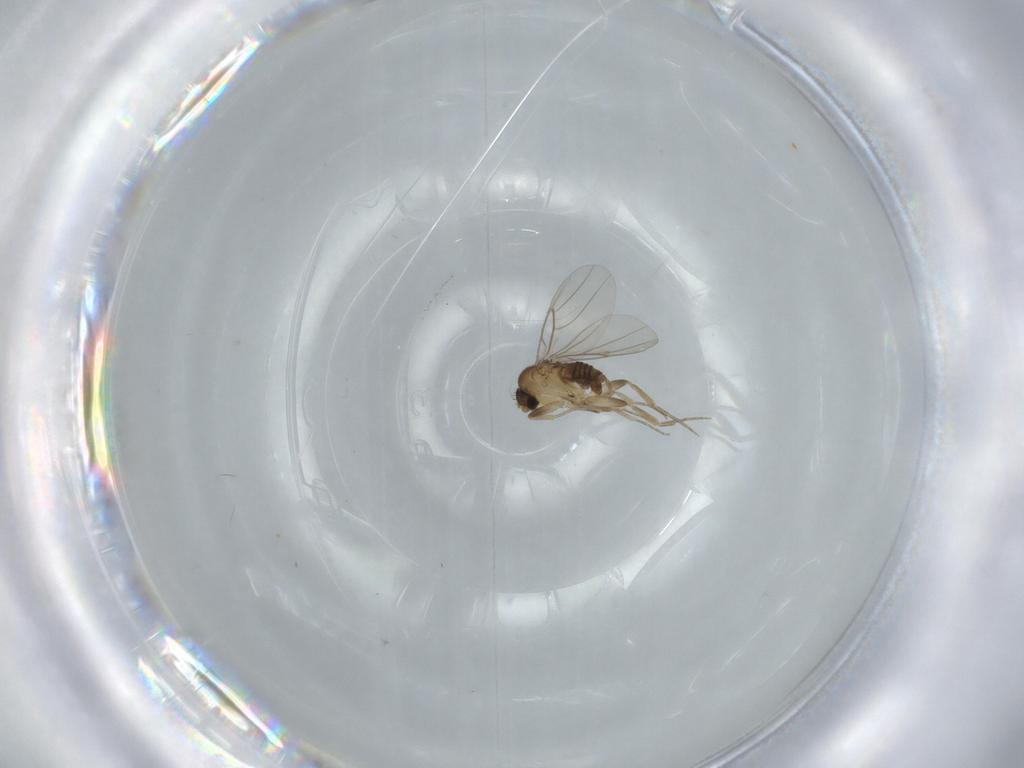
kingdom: Animalia
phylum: Arthropoda
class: Insecta
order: Diptera
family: Phoridae
